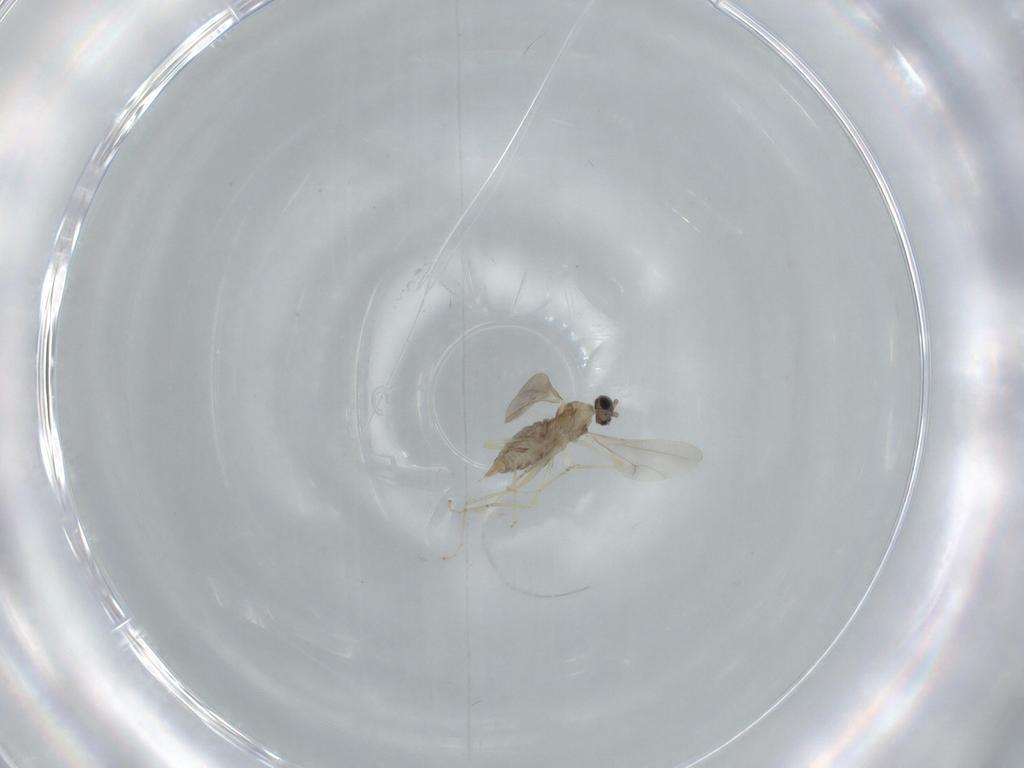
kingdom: Animalia
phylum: Arthropoda
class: Insecta
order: Diptera
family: Cecidomyiidae
